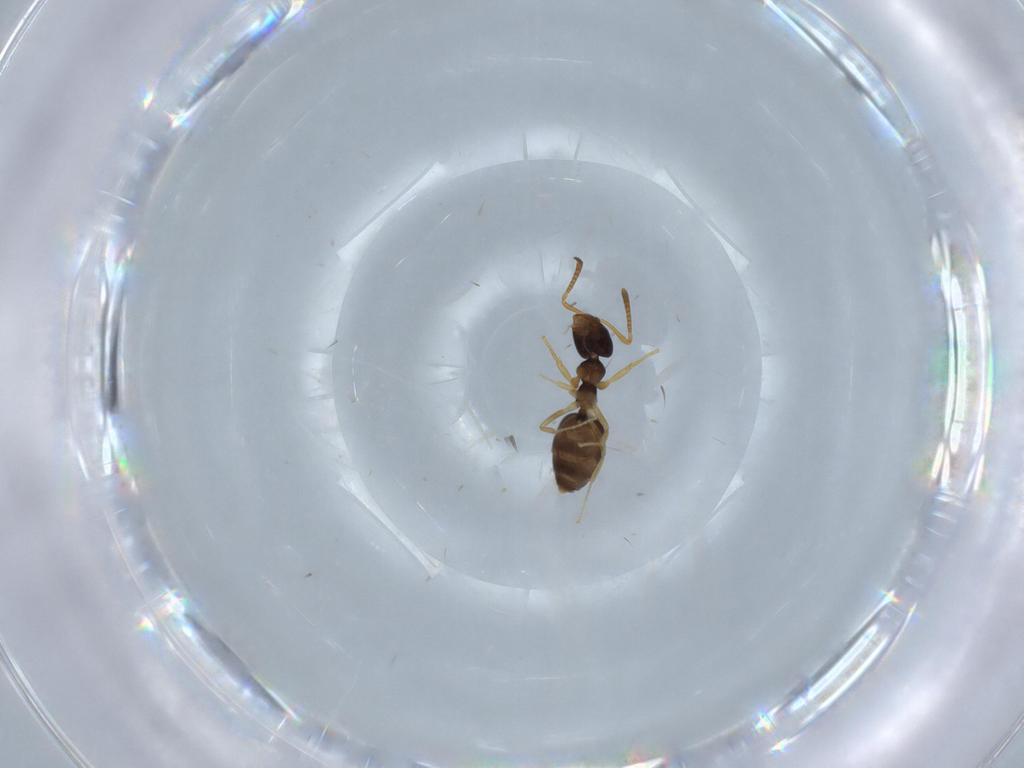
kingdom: Animalia
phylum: Arthropoda
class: Insecta
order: Hymenoptera
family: Formicidae
